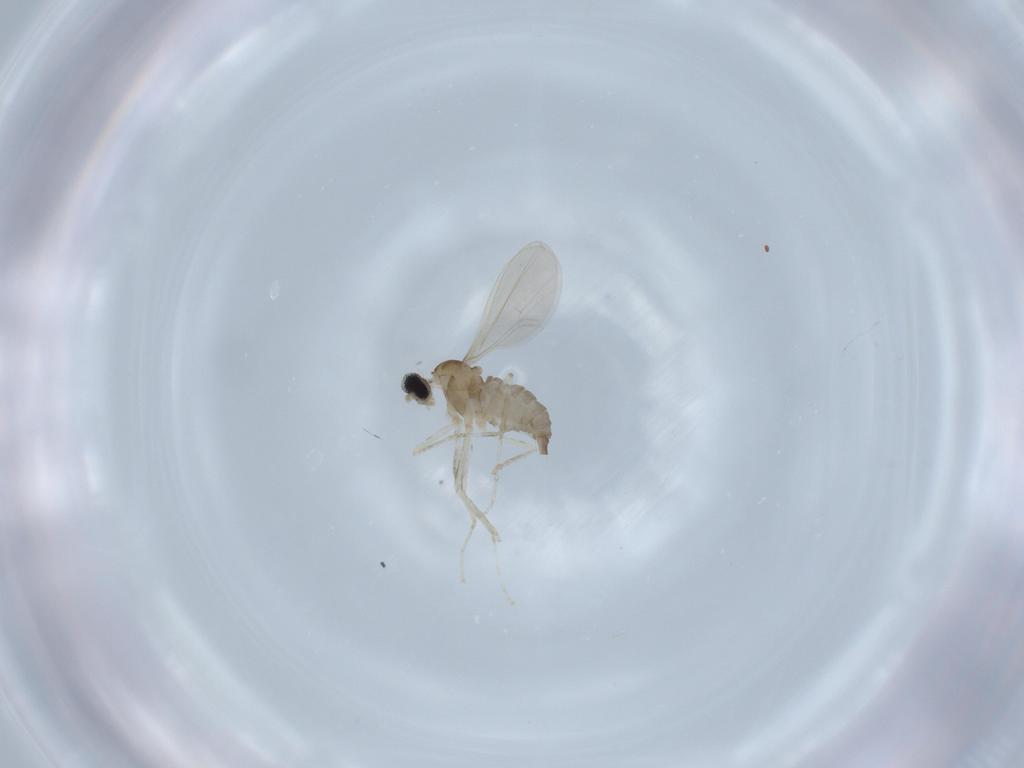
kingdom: Animalia
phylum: Arthropoda
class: Insecta
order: Diptera
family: Cecidomyiidae
